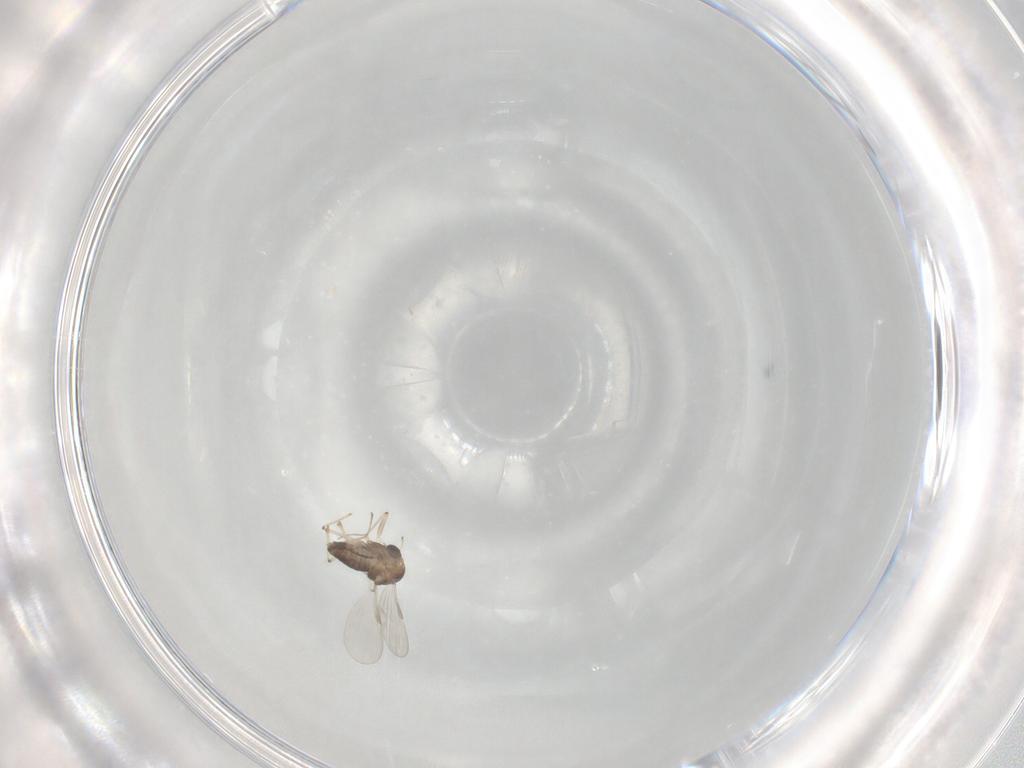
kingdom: Animalia
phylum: Arthropoda
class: Insecta
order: Diptera
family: Chironomidae
